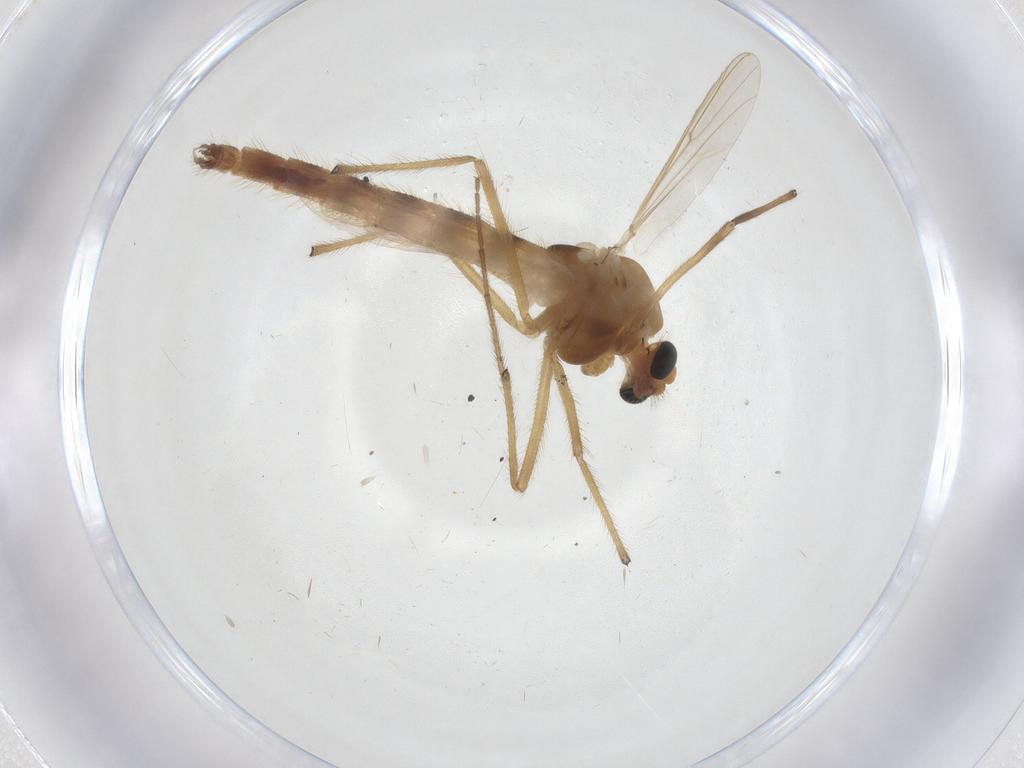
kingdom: Animalia
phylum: Arthropoda
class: Insecta
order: Diptera
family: Chironomidae
